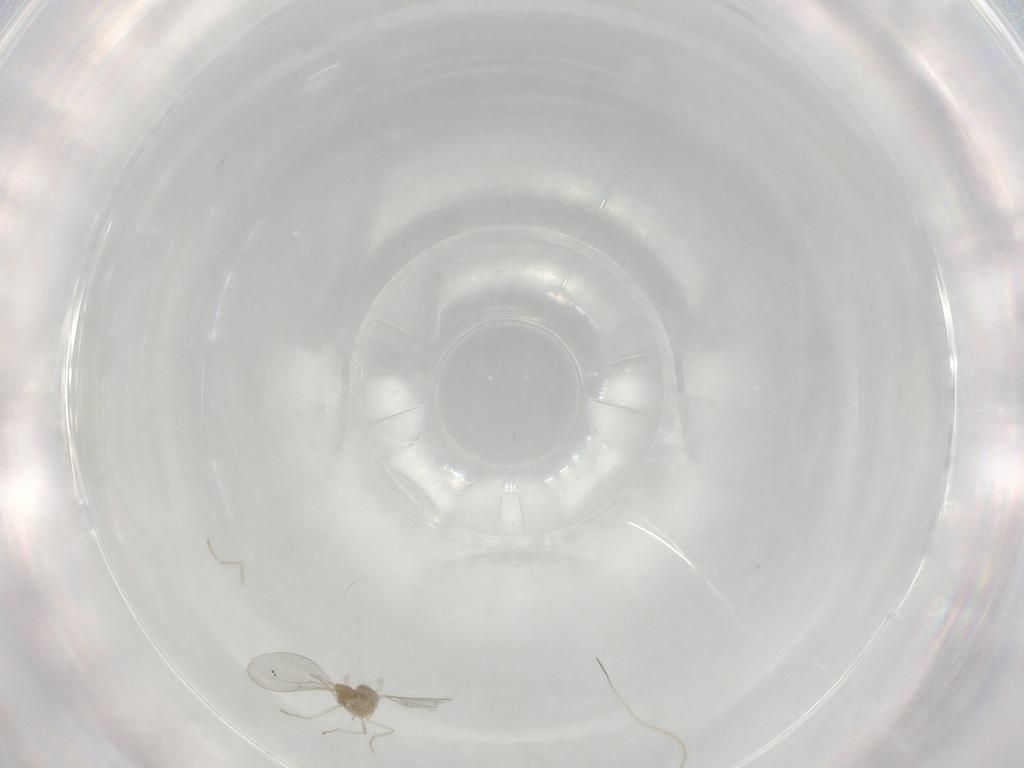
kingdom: Animalia
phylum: Arthropoda
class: Insecta
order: Diptera
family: Cecidomyiidae
